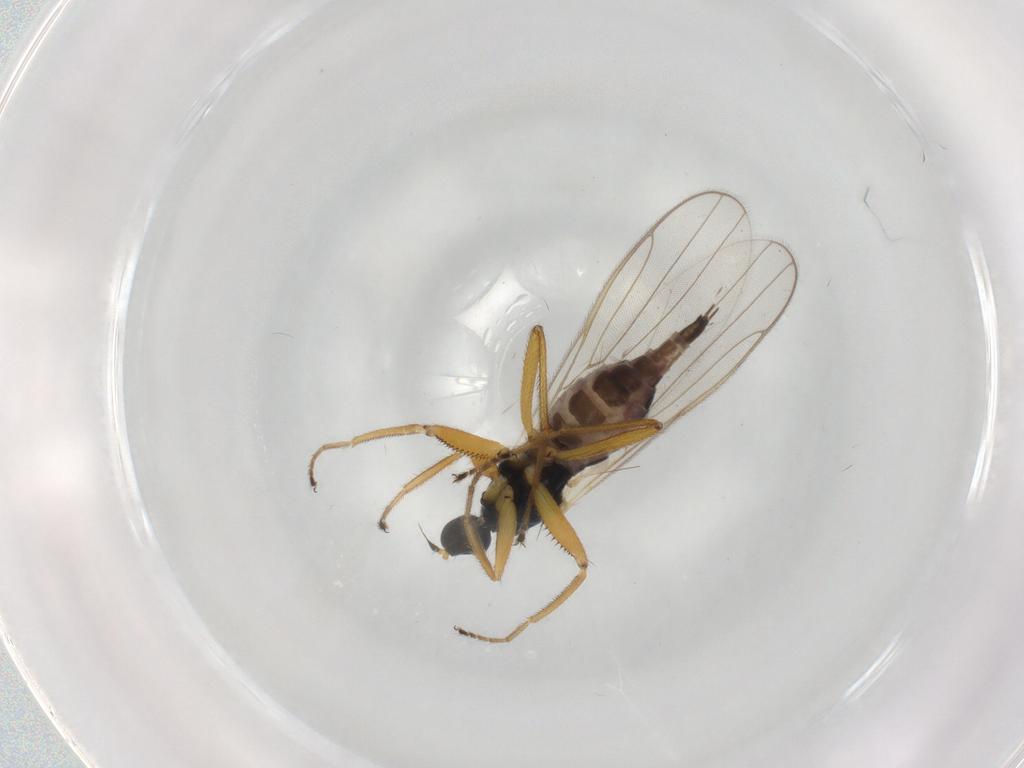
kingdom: Animalia
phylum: Arthropoda
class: Insecta
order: Diptera
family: Hybotidae
